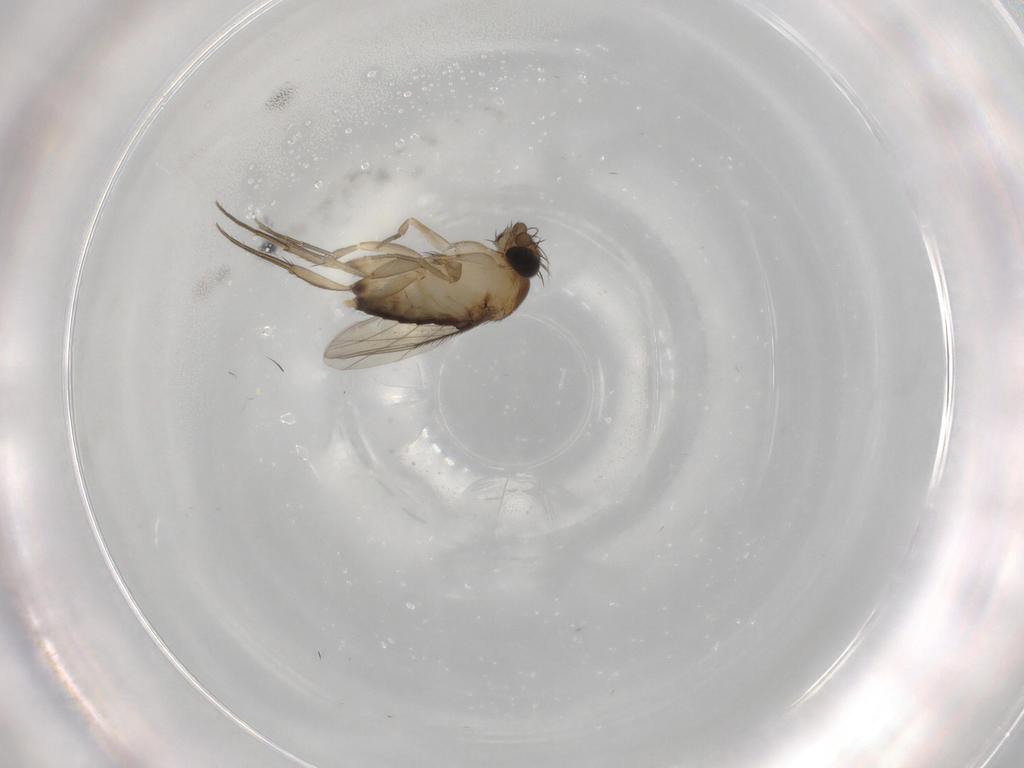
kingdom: Animalia
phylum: Arthropoda
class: Insecta
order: Diptera
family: Phoridae
